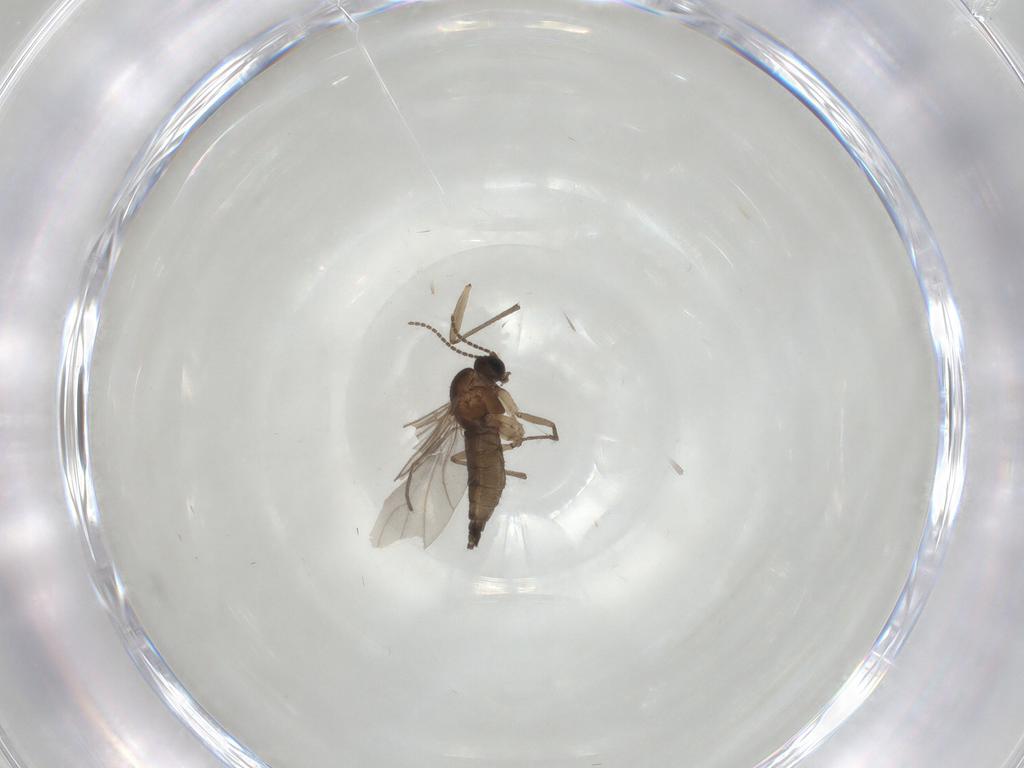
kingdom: Animalia
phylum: Arthropoda
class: Insecta
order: Diptera
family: Sciaridae
